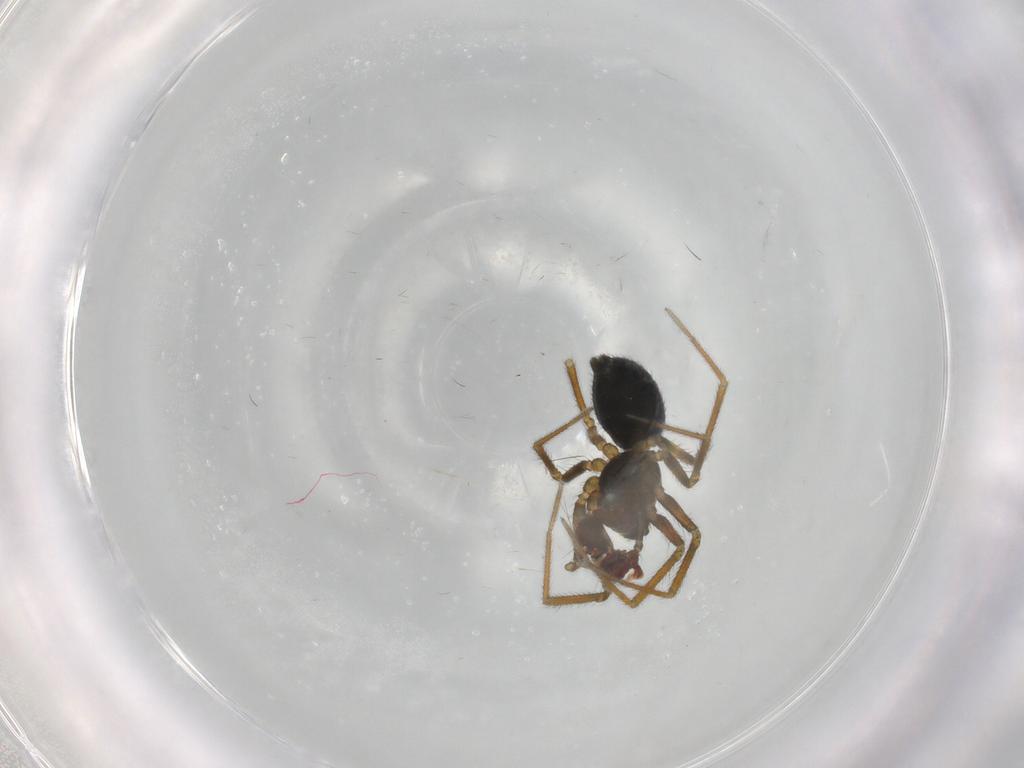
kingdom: Animalia
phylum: Arthropoda
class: Arachnida
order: Araneae
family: Linyphiidae
